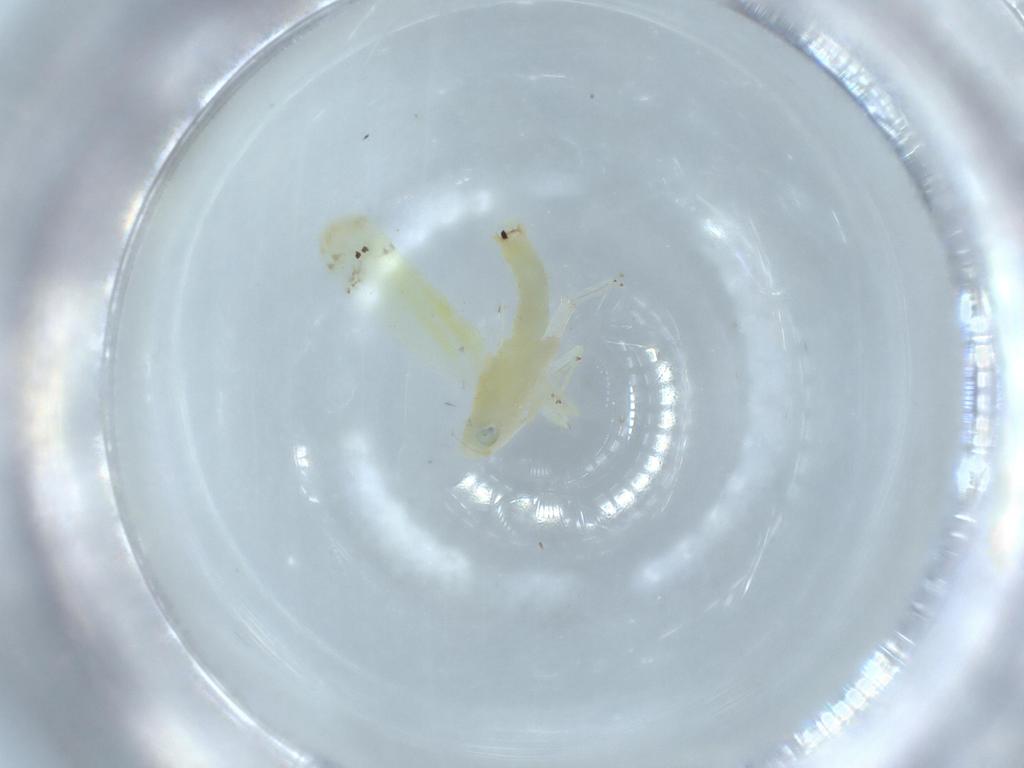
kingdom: Animalia
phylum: Arthropoda
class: Insecta
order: Hemiptera
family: Cicadellidae
